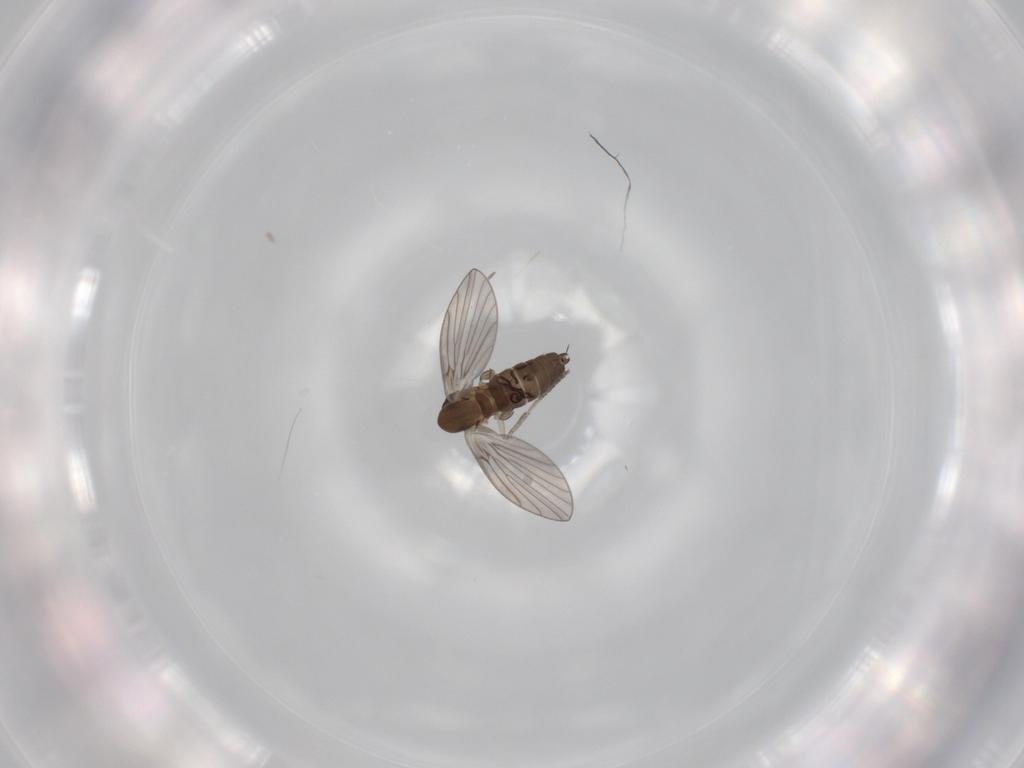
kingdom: Animalia
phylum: Arthropoda
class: Insecta
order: Diptera
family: Psychodidae
